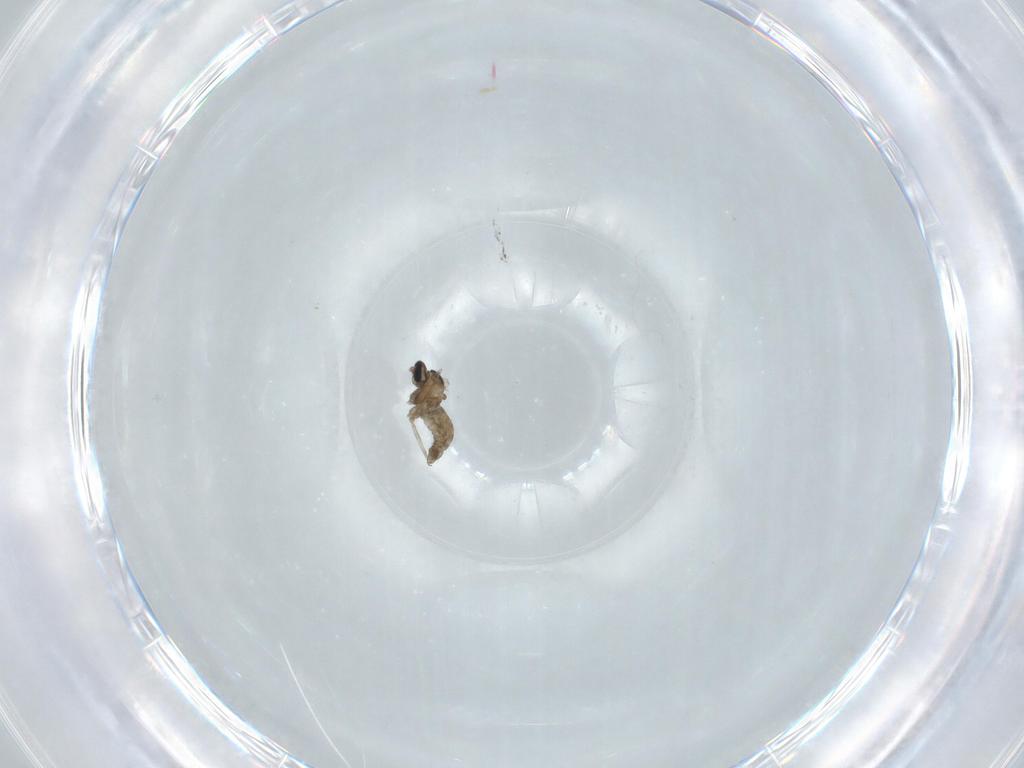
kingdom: Animalia
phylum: Arthropoda
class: Insecta
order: Diptera
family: Cecidomyiidae
